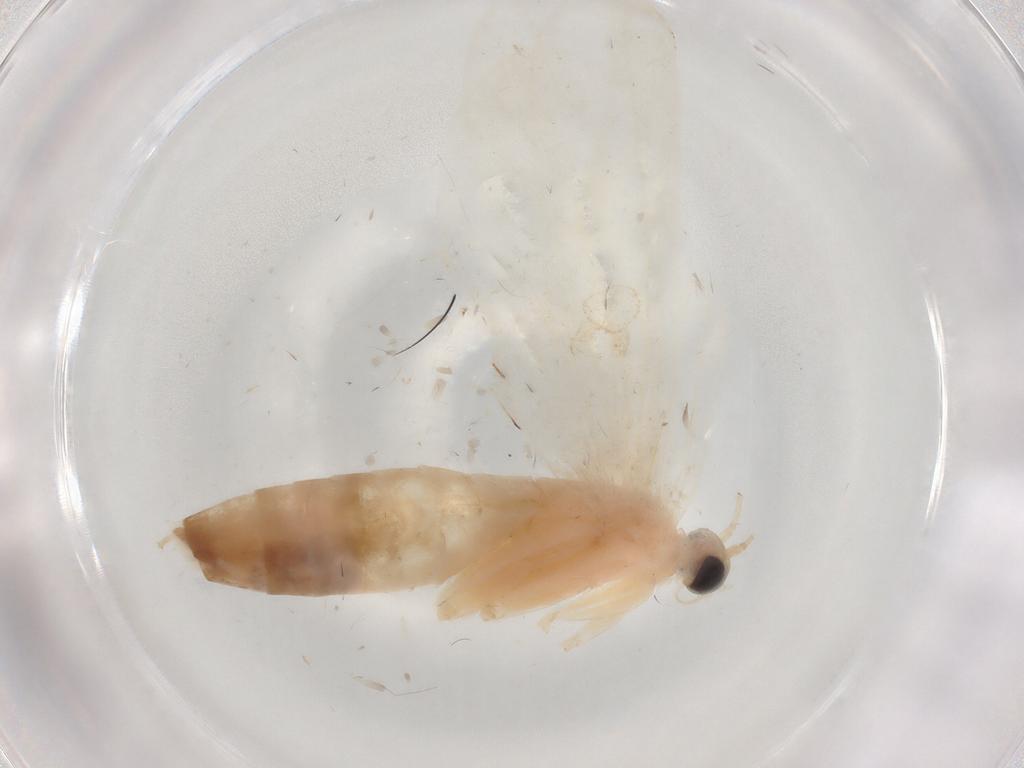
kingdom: Animalia
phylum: Arthropoda
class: Insecta
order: Lepidoptera
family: Crambidae
